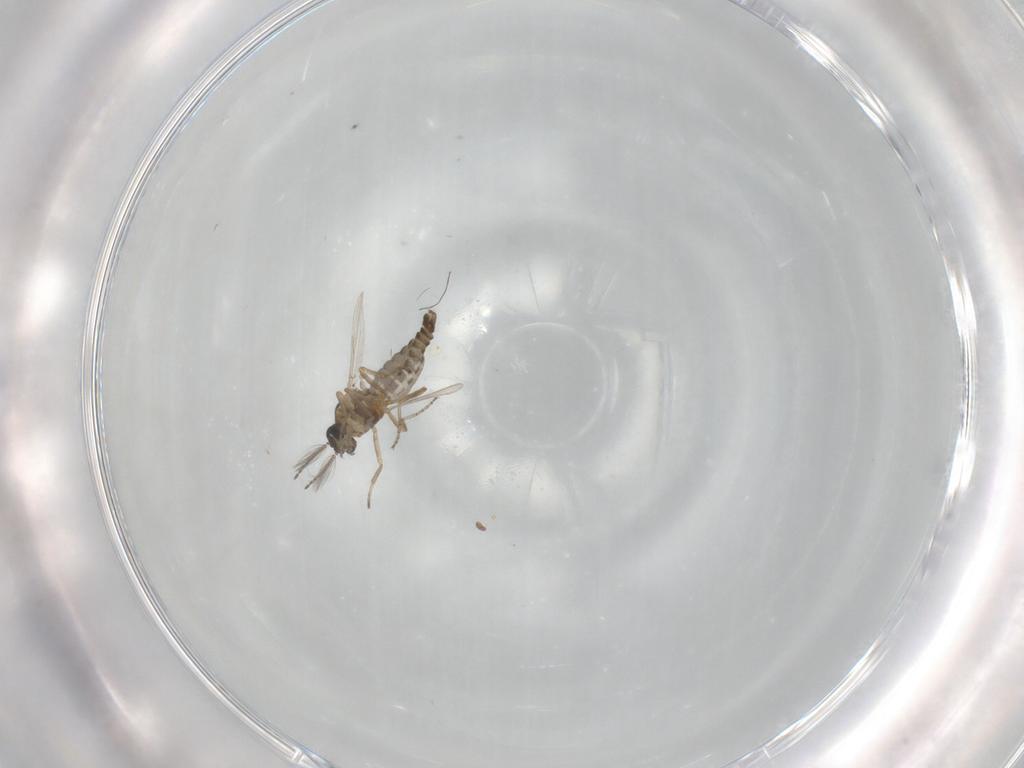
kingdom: Animalia
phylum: Arthropoda
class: Insecta
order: Diptera
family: Ceratopogonidae
